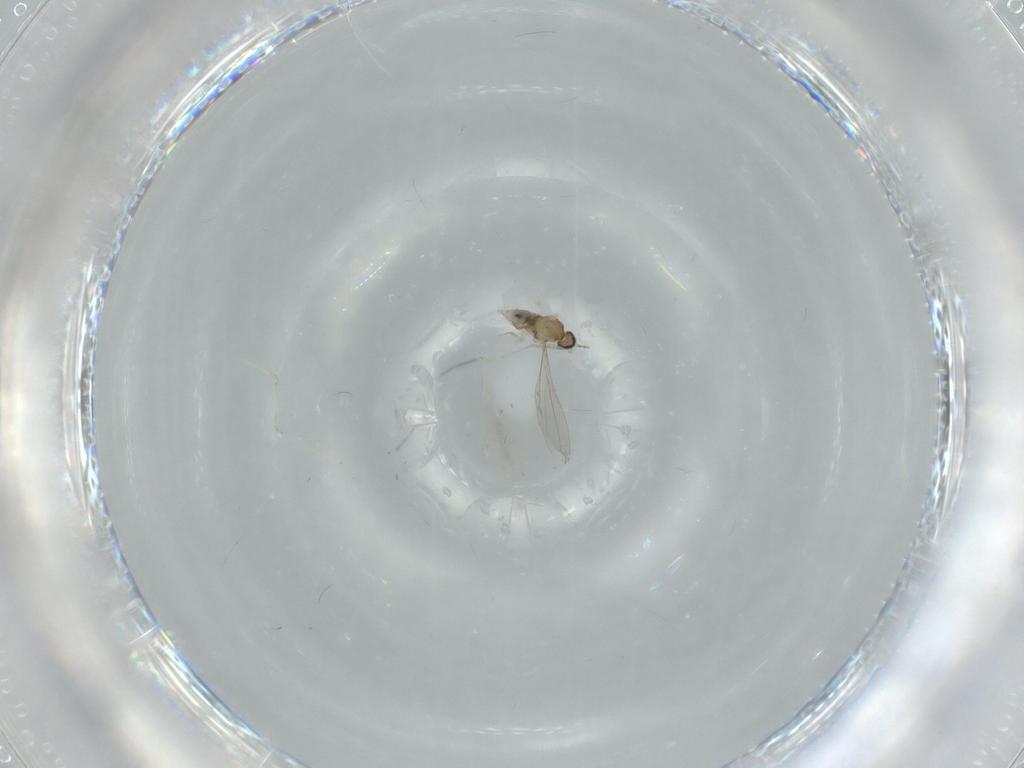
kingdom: Animalia
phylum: Arthropoda
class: Insecta
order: Diptera
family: Cecidomyiidae
